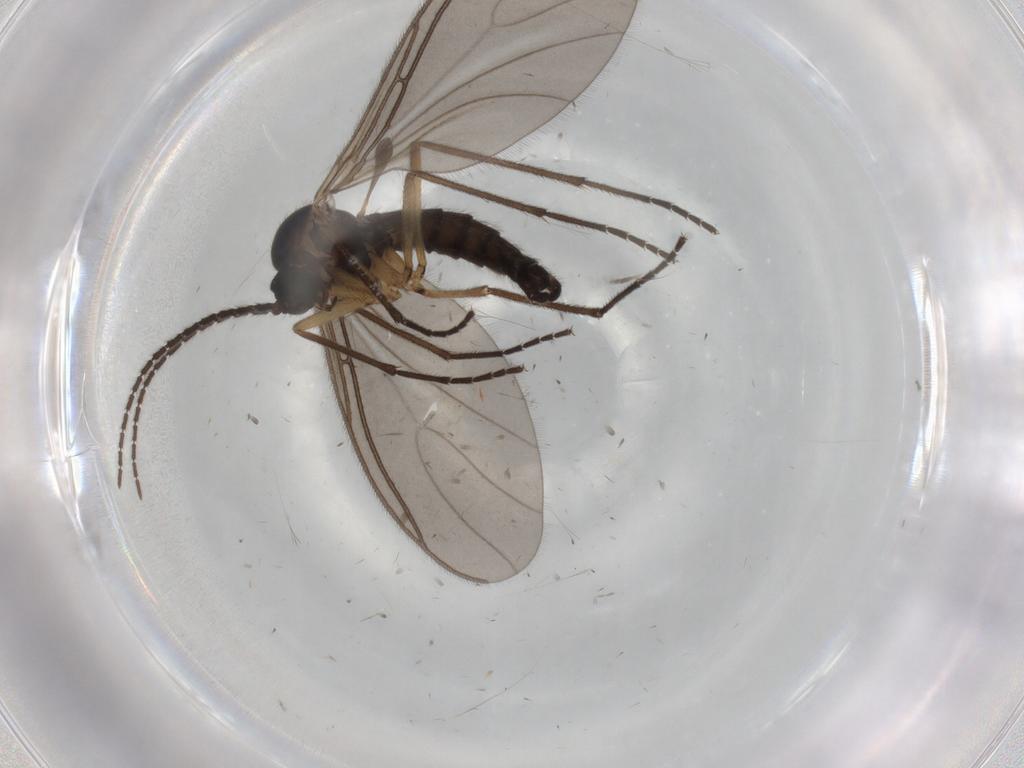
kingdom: Animalia
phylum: Arthropoda
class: Insecta
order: Diptera
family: Sciaridae
